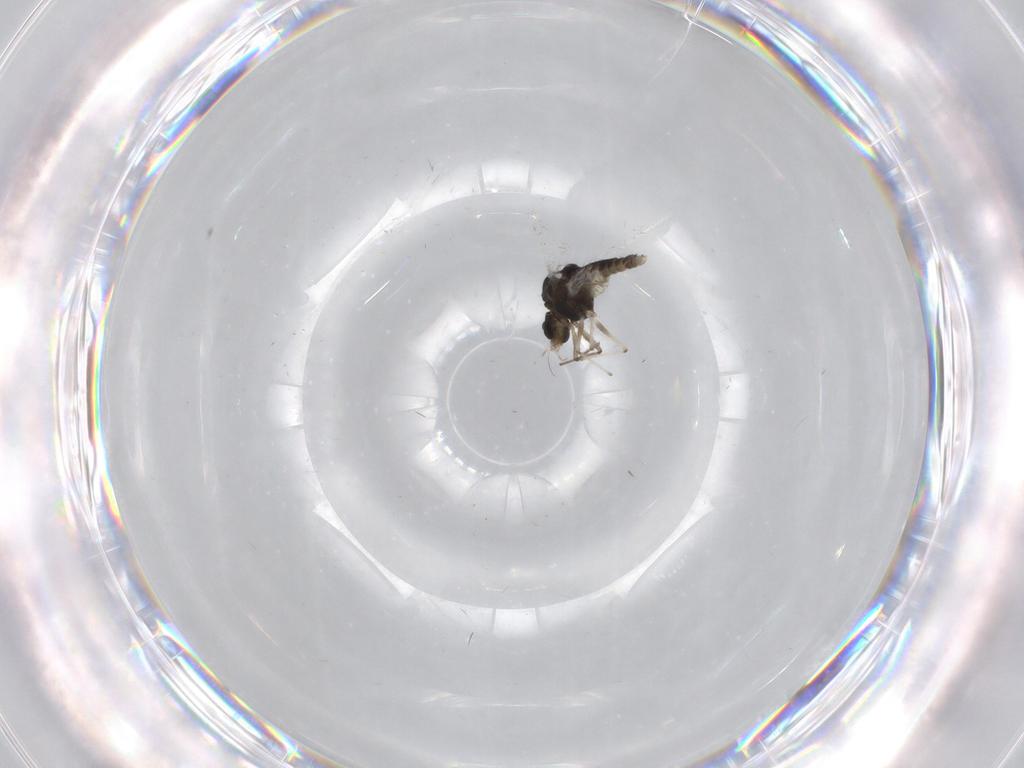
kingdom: Animalia
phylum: Arthropoda
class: Insecta
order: Diptera
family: Chironomidae
